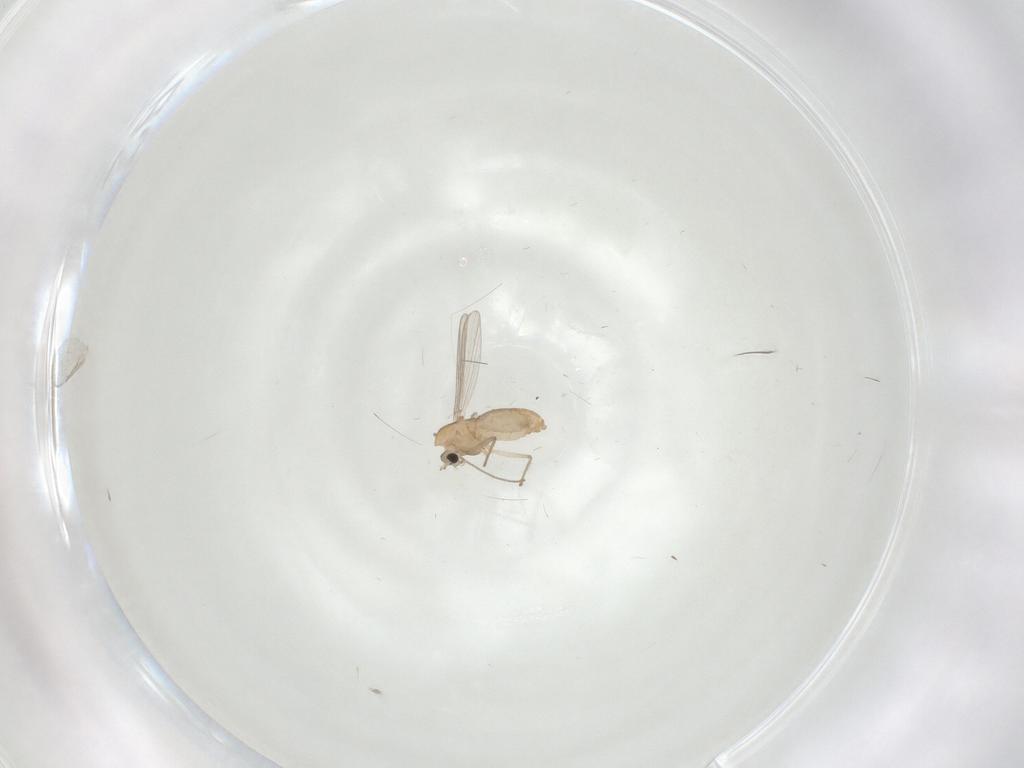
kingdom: Animalia
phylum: Arthropoda
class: Insecta
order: Diptera
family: Chironomidae
